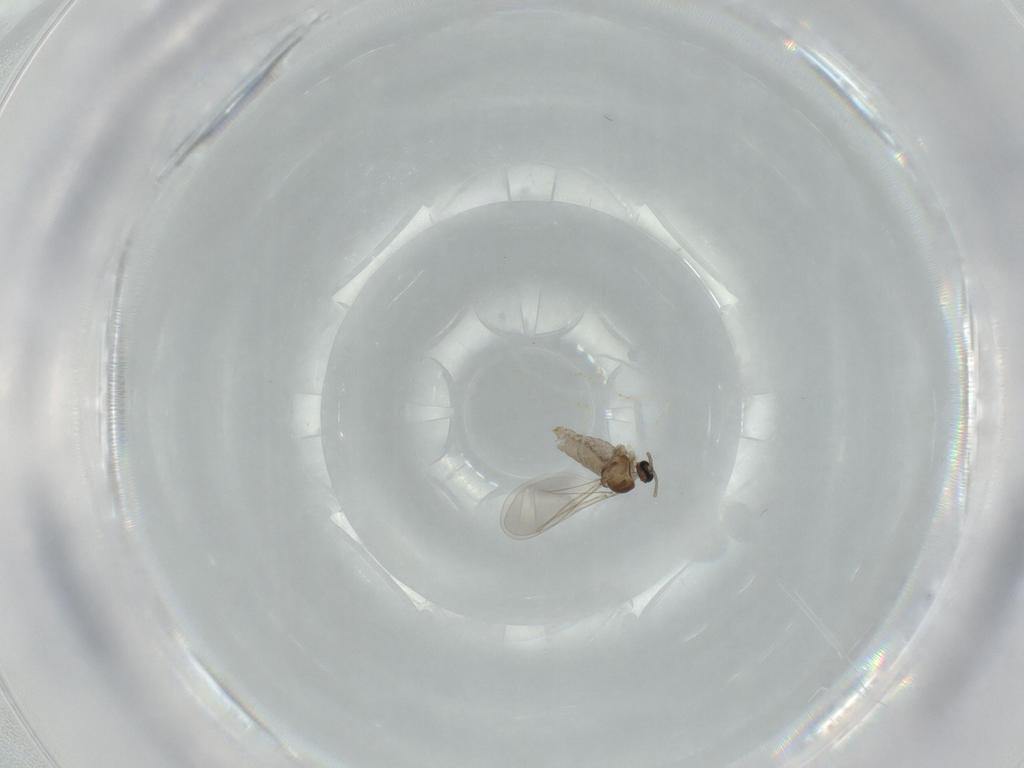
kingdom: Animalia
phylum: Arthropoda
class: Insecta
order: Diptera
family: Cecidomyiidae
